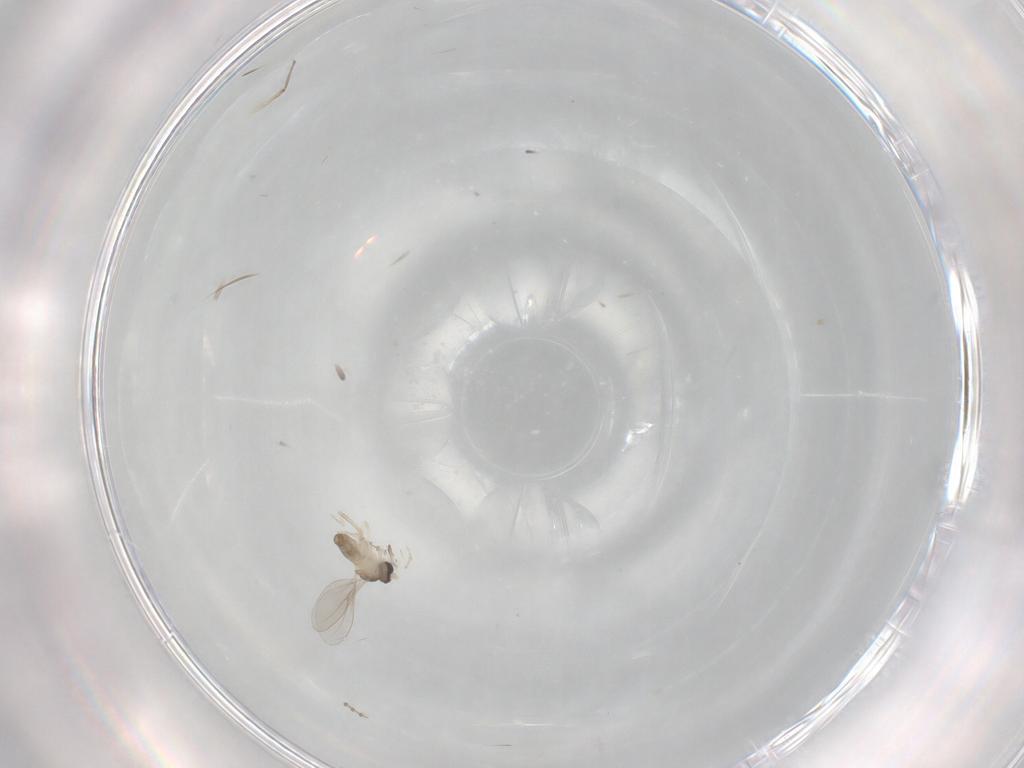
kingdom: Animalia
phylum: Arthropoda
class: Insecta
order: Diptera
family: Cecidomyiidae
